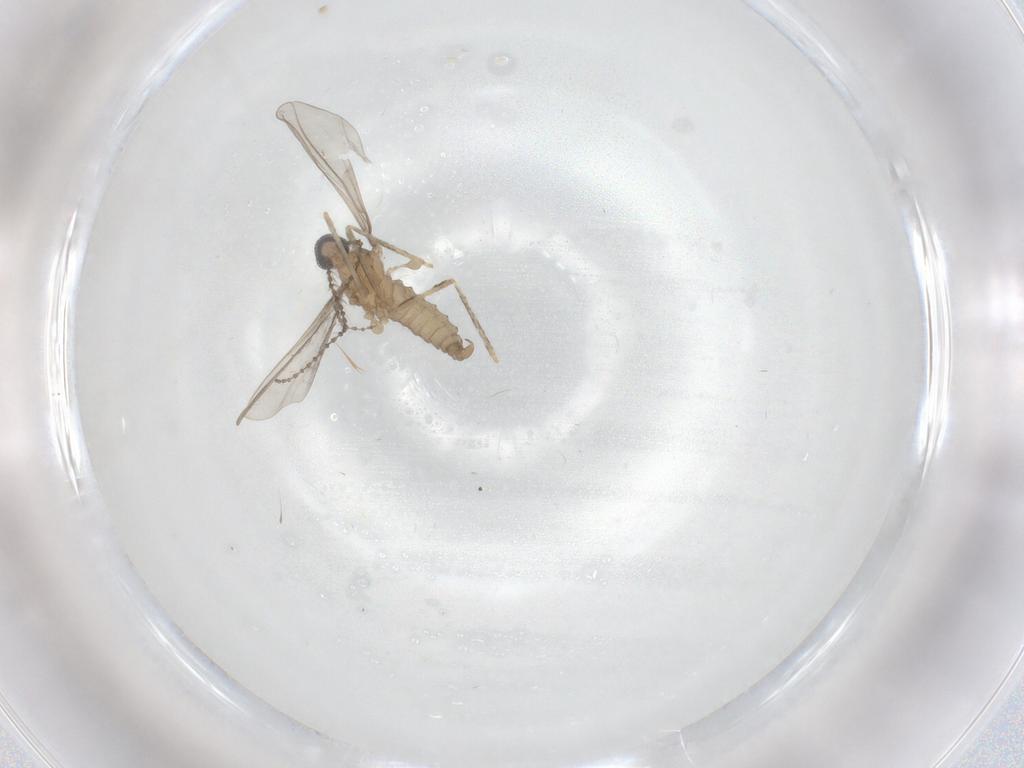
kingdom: Animalia
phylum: Arthropoda
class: Insecta
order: Diptera
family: Cecidomyiidae
